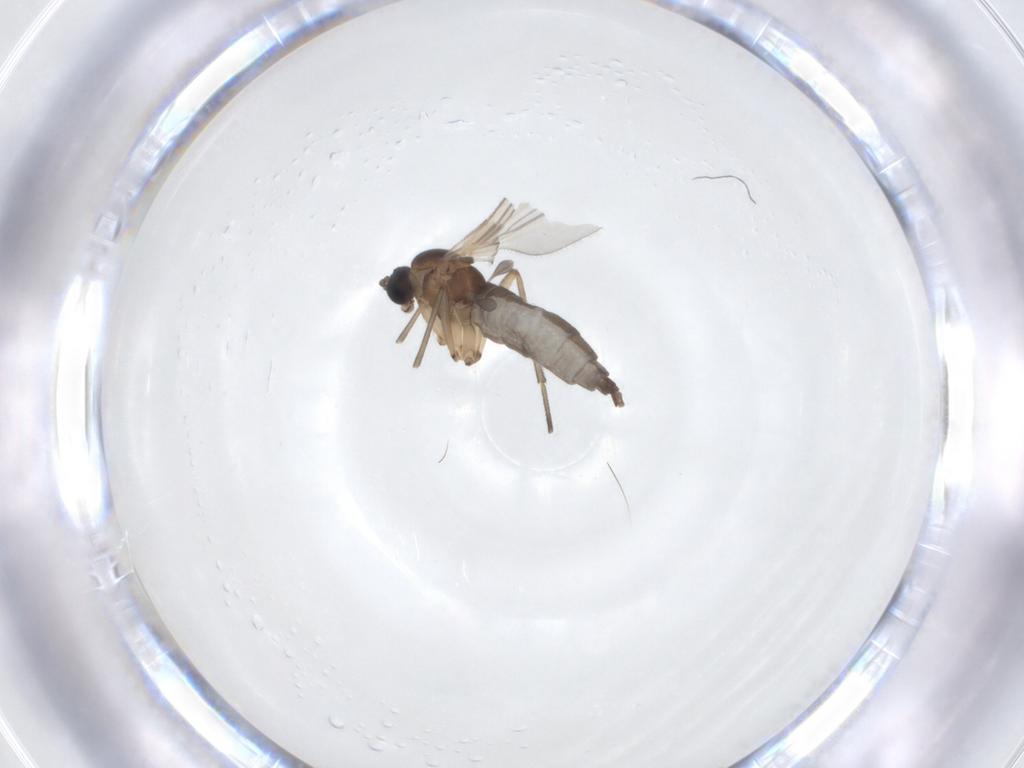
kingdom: Animalia
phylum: Arthropoda
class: Insecta
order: Diptera
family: Sciaridae
